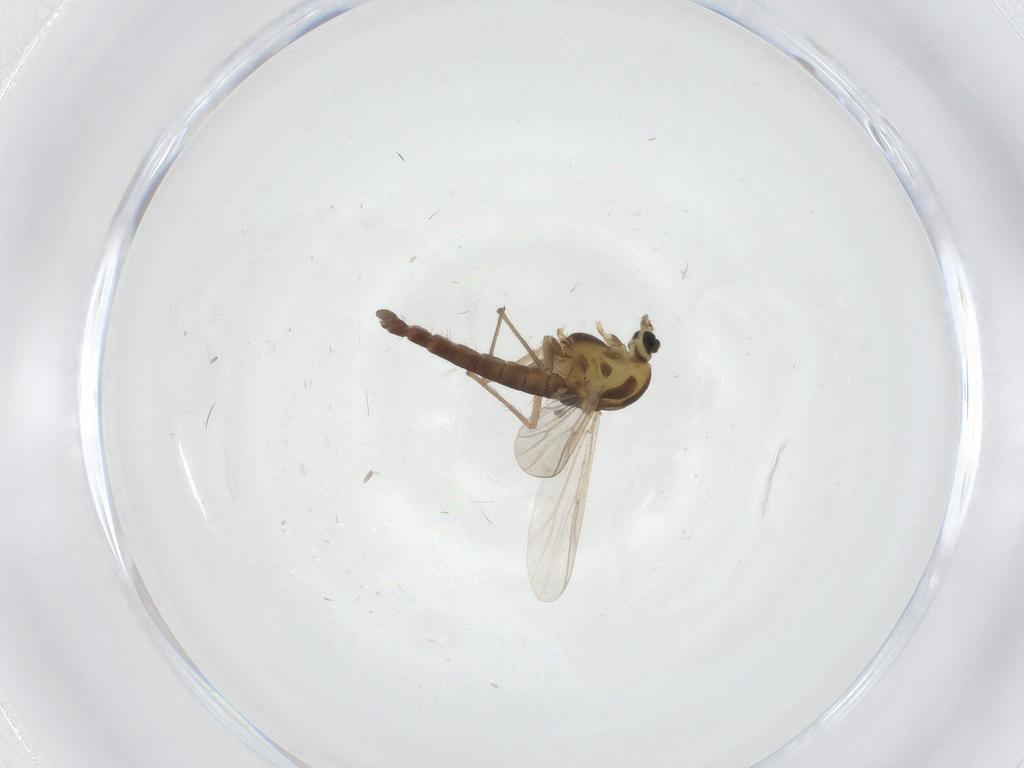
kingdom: Animalia
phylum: Arthropoda
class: Insecta
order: Diptera
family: Chironomidae
